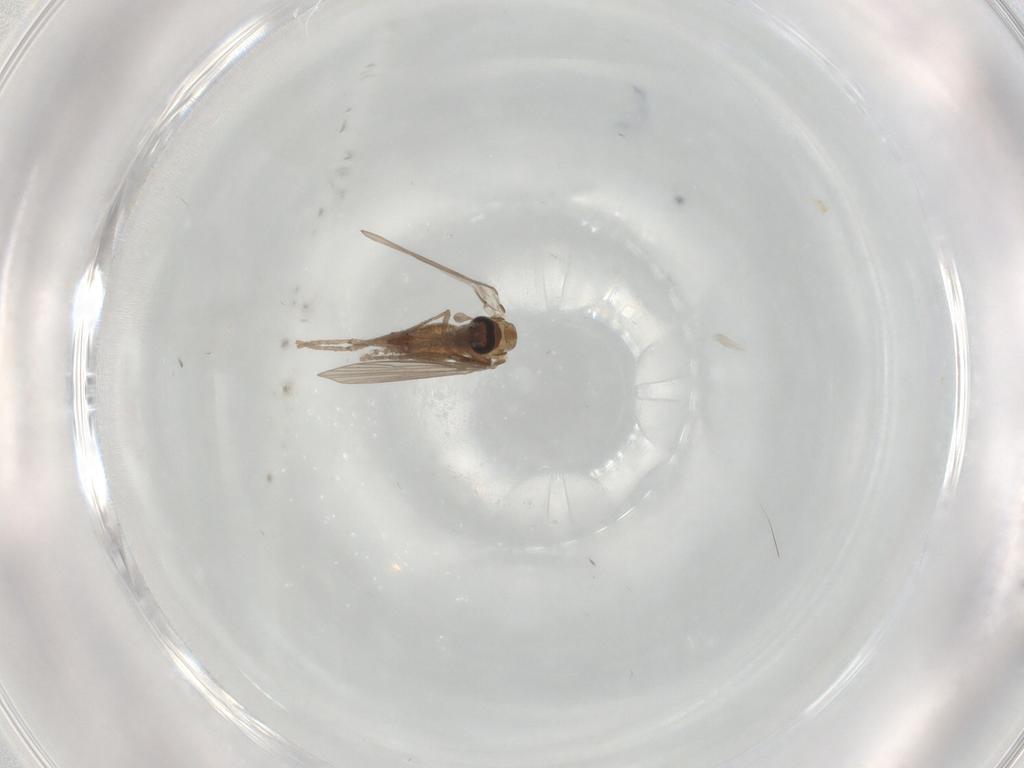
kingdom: Animalia
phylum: Arthropoda
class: Insecta
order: Diptera
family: Psychodidae
